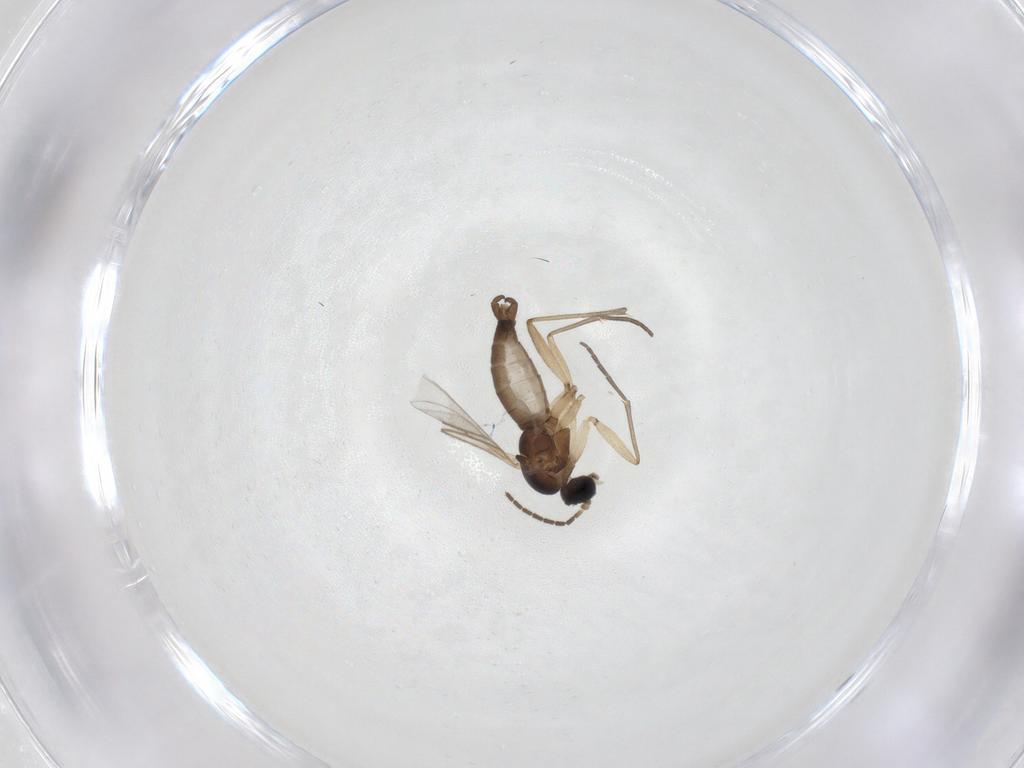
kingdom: Animalia
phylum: Arthropoda
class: Insecta
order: Diptera
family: Sciaridae
